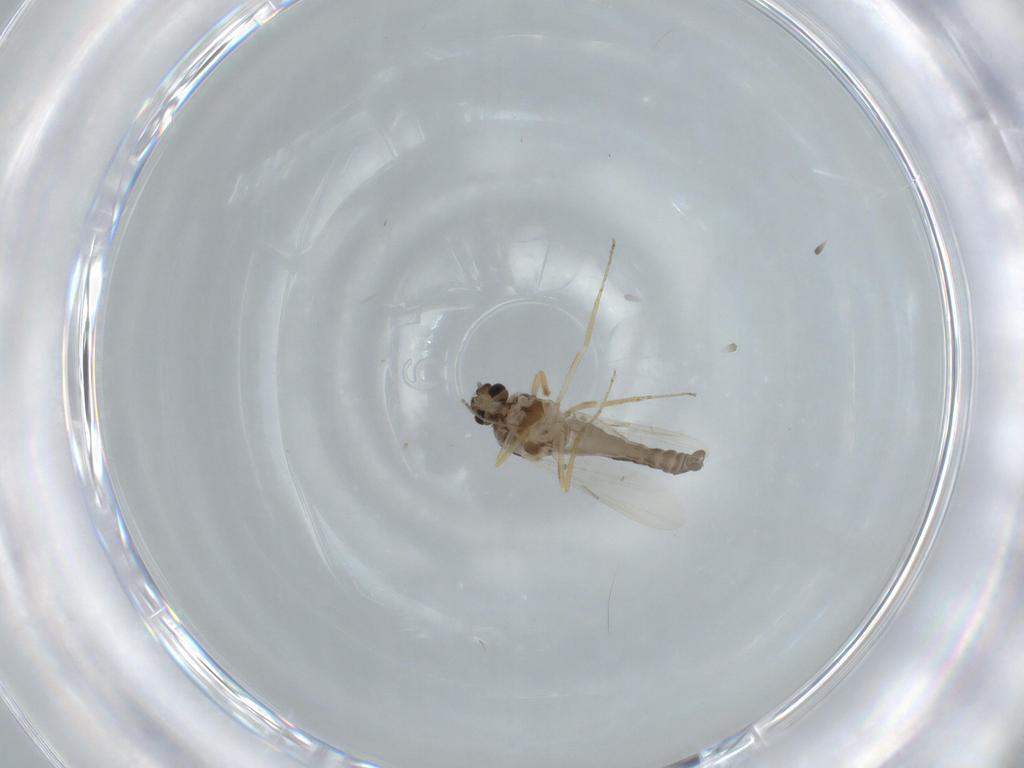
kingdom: Animalia
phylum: Arthropoda
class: Insecta
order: Diptera
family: Ceratopogonidae
